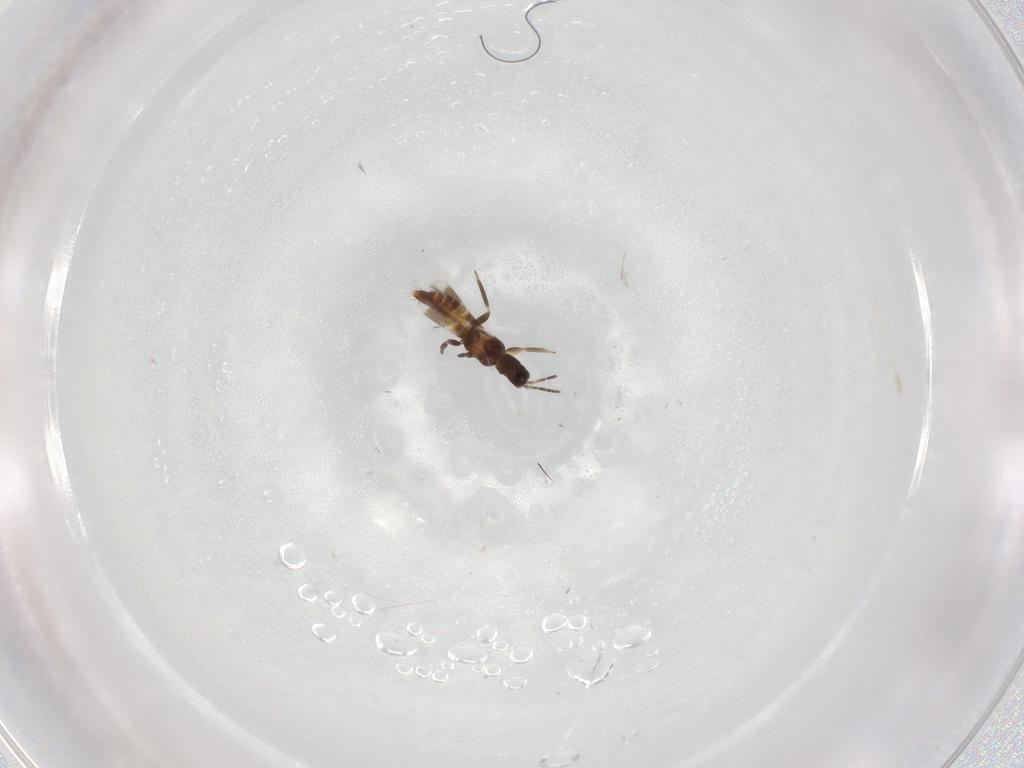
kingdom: Animalia
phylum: Arthropoda
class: Insecta
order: Thysanoptera
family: Aeolothripidae
